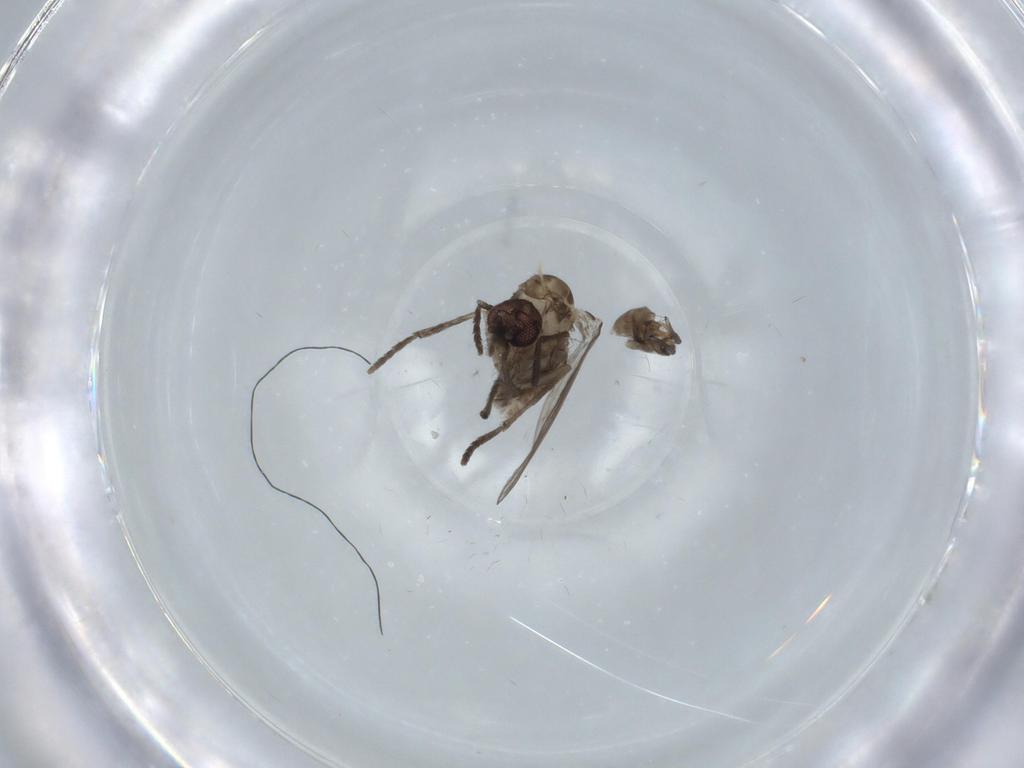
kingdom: Animalia
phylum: Arthropoda
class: Insecta
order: Diptera
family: Psychodidae
